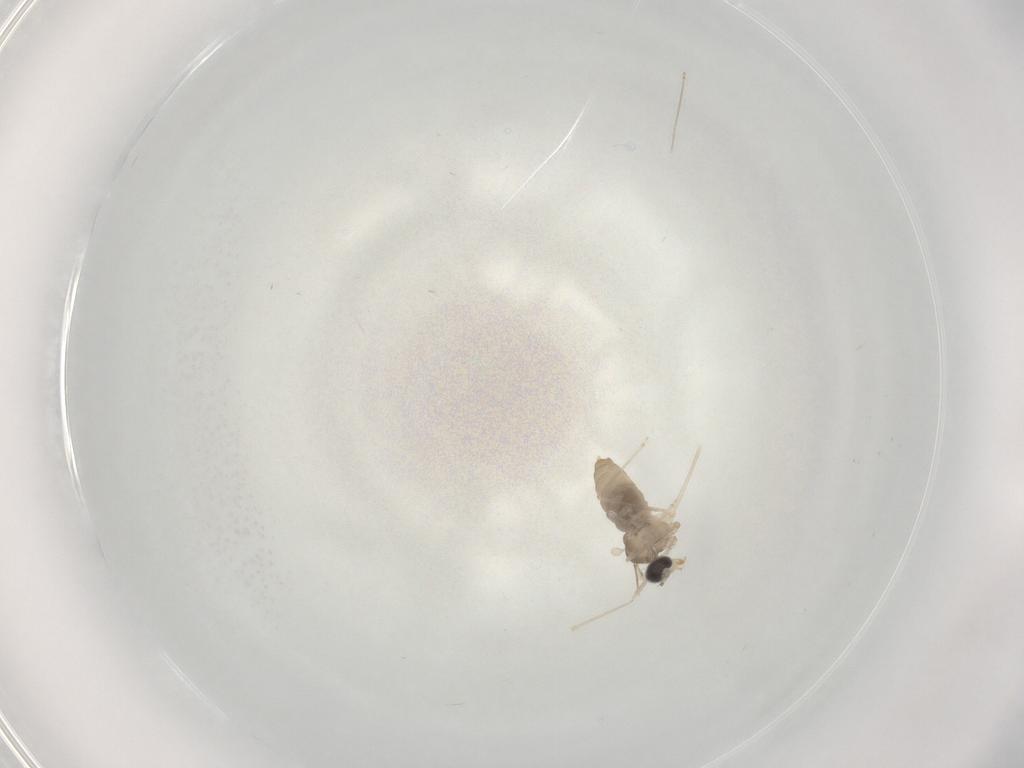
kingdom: Animalia
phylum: Arthropoda
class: Insecta
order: Diptera
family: Cecidomyiidae
